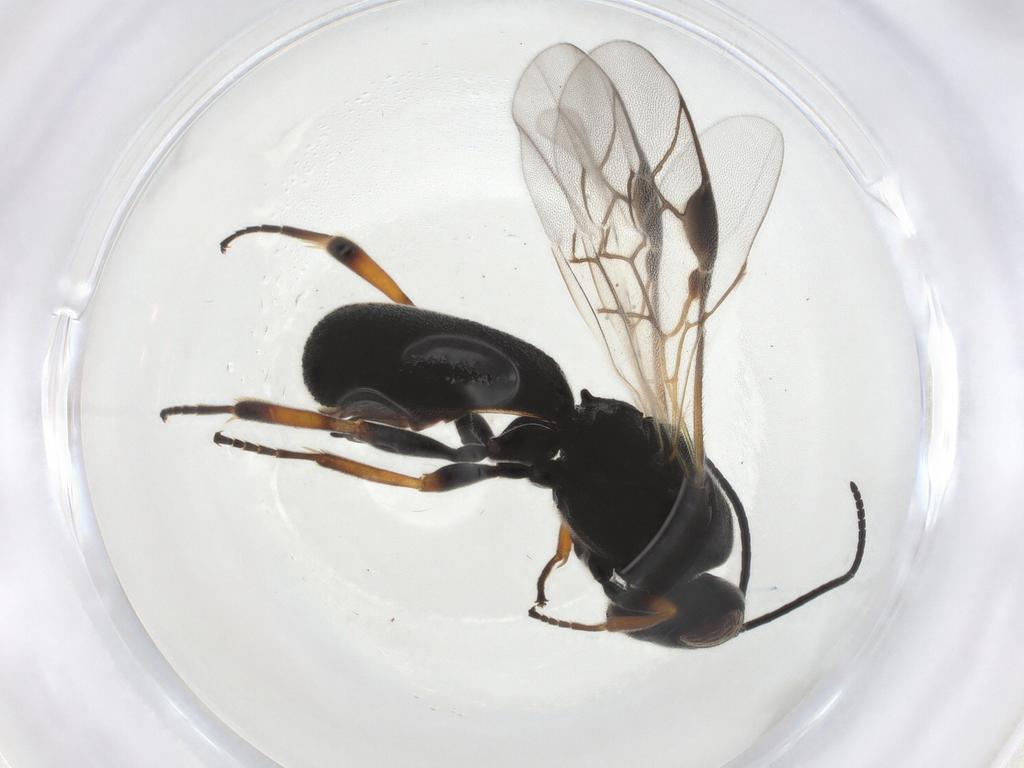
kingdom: Animalia
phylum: Arthropoda
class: Insecta
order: Hymenoptera
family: Braconidae
